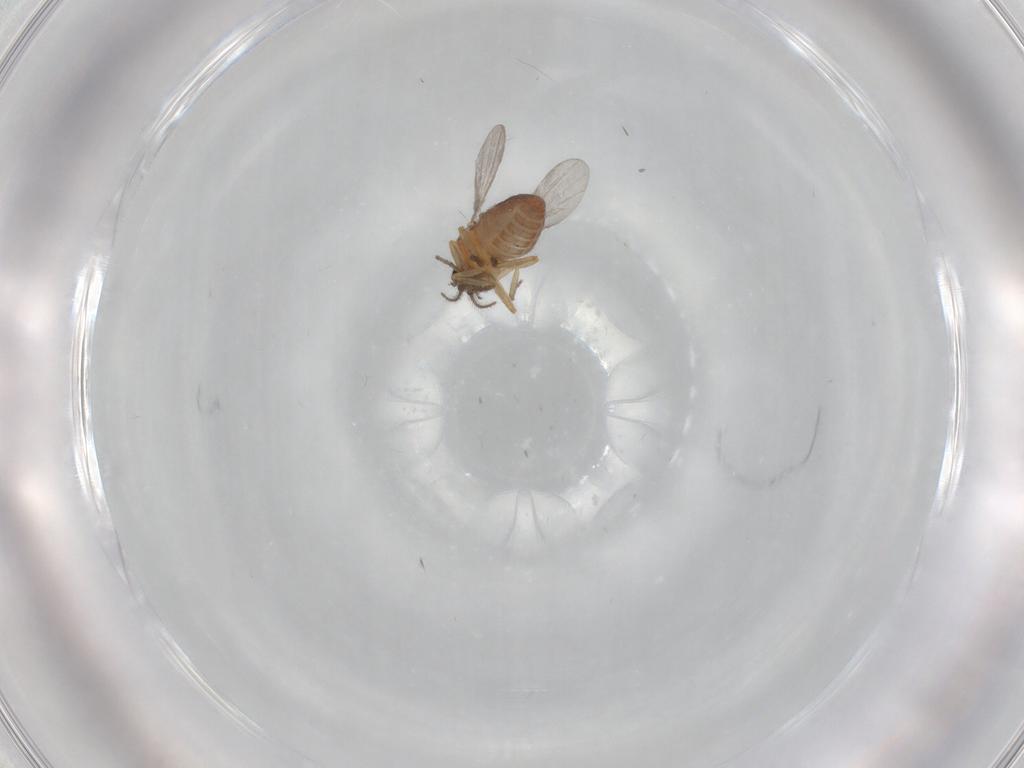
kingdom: Animalia
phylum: Arthropoda
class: Insecta
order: Diptera
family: Ceratopogonidae
